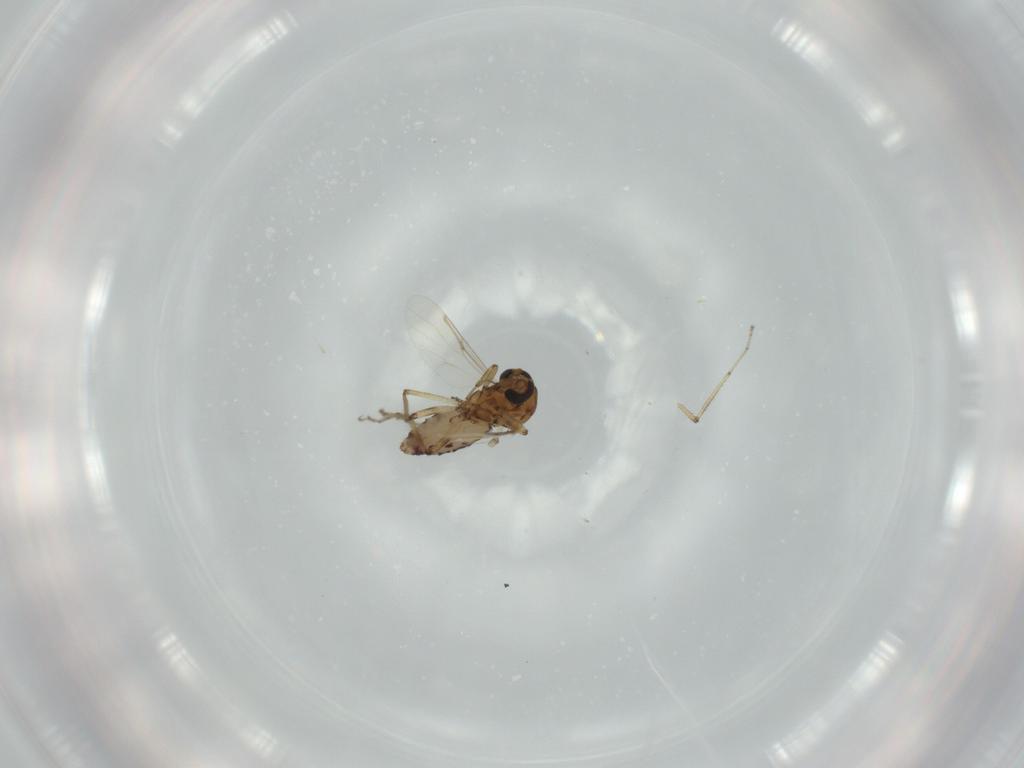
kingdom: Animalia
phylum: Arthropoda
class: Insecta
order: Diptera
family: Ceratopogonidae
